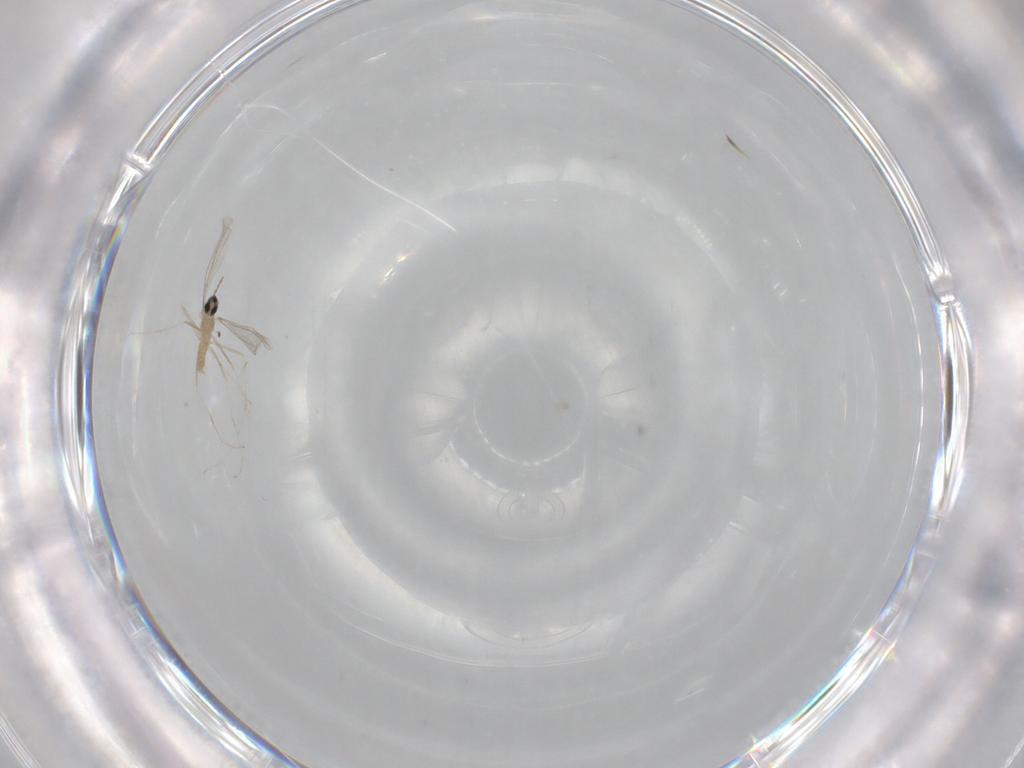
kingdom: Animalia
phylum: Arthropoda
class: Insecta
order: Diptera
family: Cecidomyiidae
